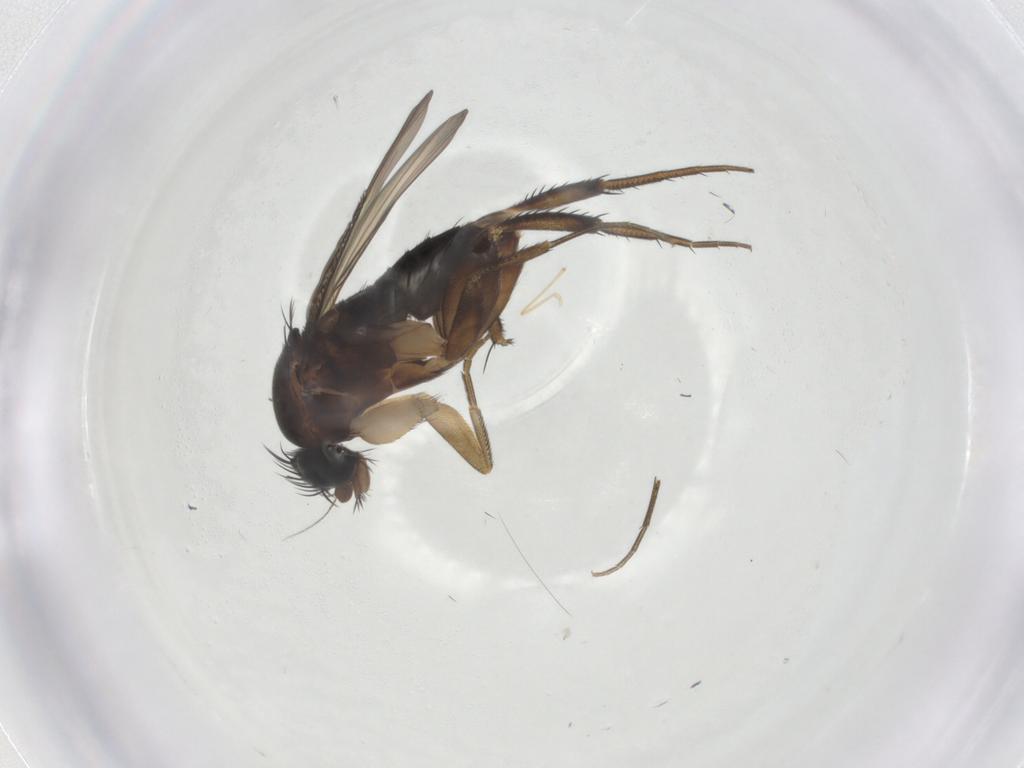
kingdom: Animalia
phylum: Arthropoda
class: Insecta
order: Diptera
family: Phoridae
